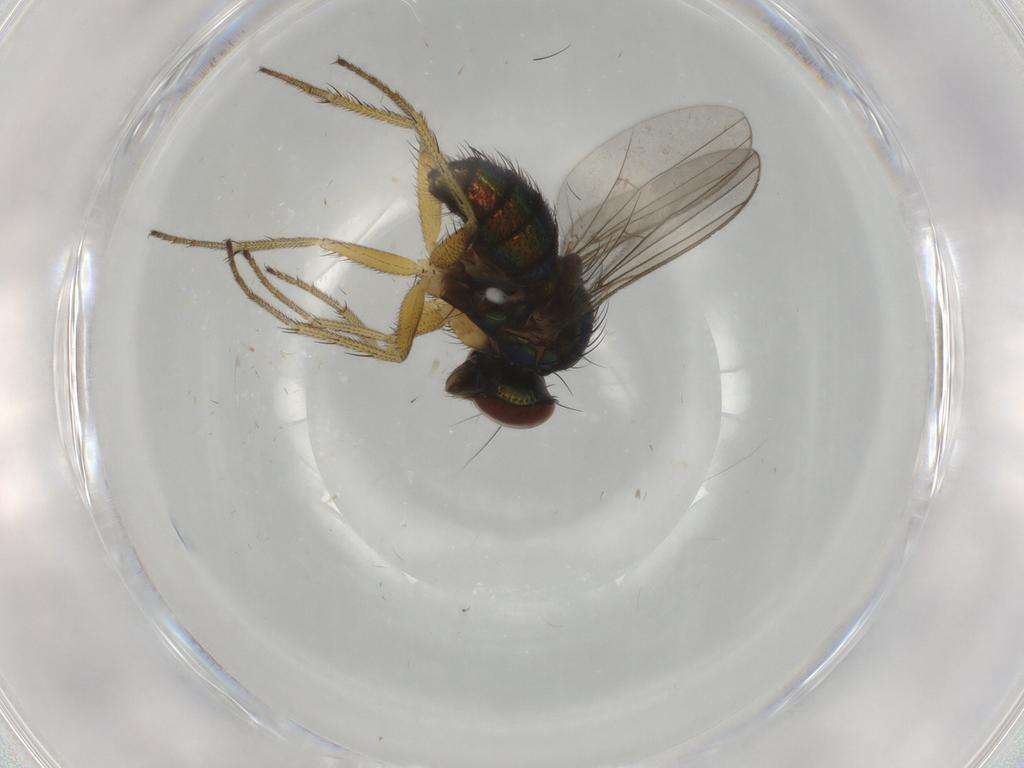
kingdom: Animalia
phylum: Arthropoda
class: Insecta
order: Diptera
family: Dolichopodidae
